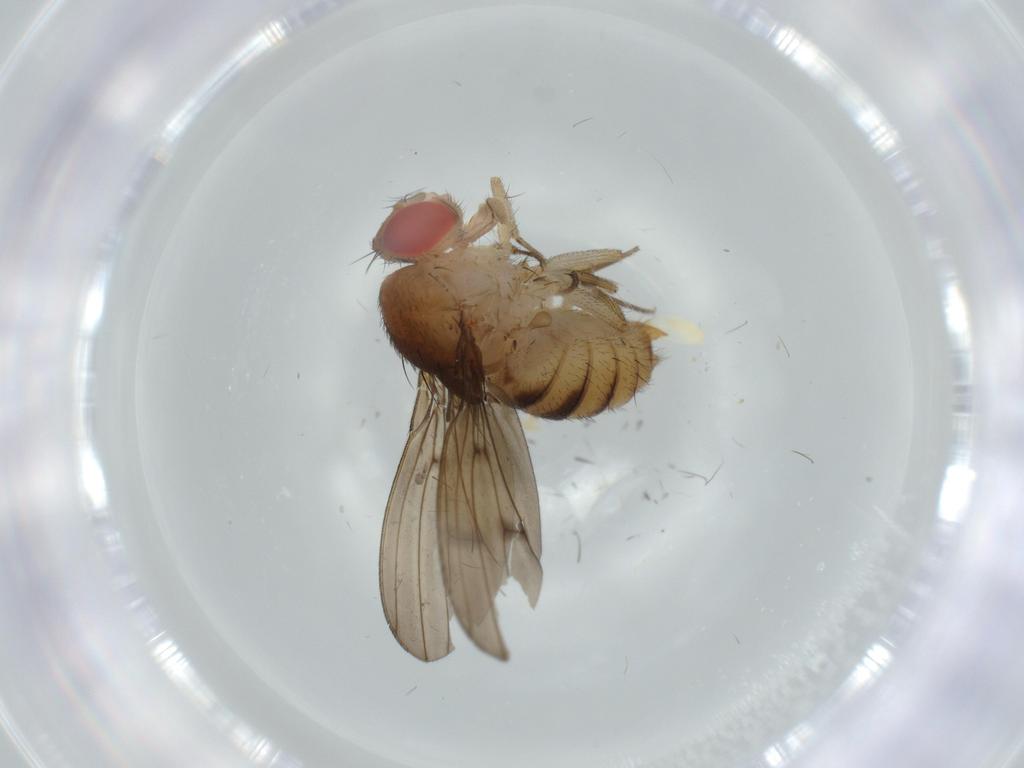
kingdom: Animalia
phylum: Arthropoda
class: Insecta
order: Diptera
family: Drosophilidae
